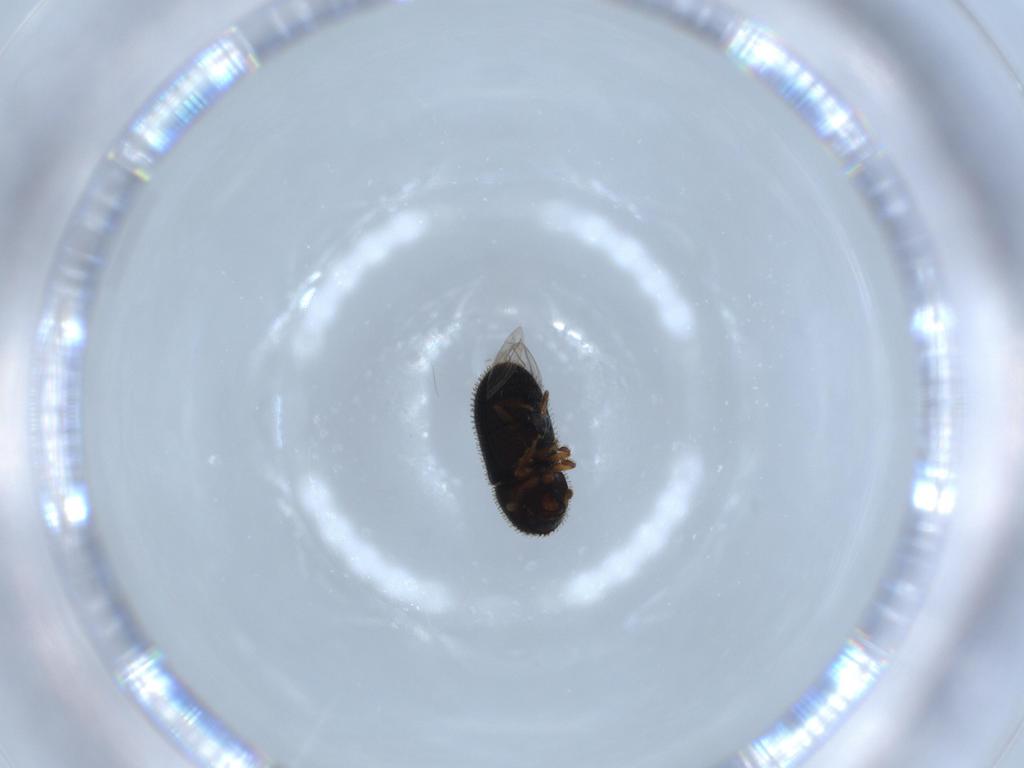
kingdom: Animalia
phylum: Arthropoda
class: Insecta
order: Coleoptera
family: Curculionidae
